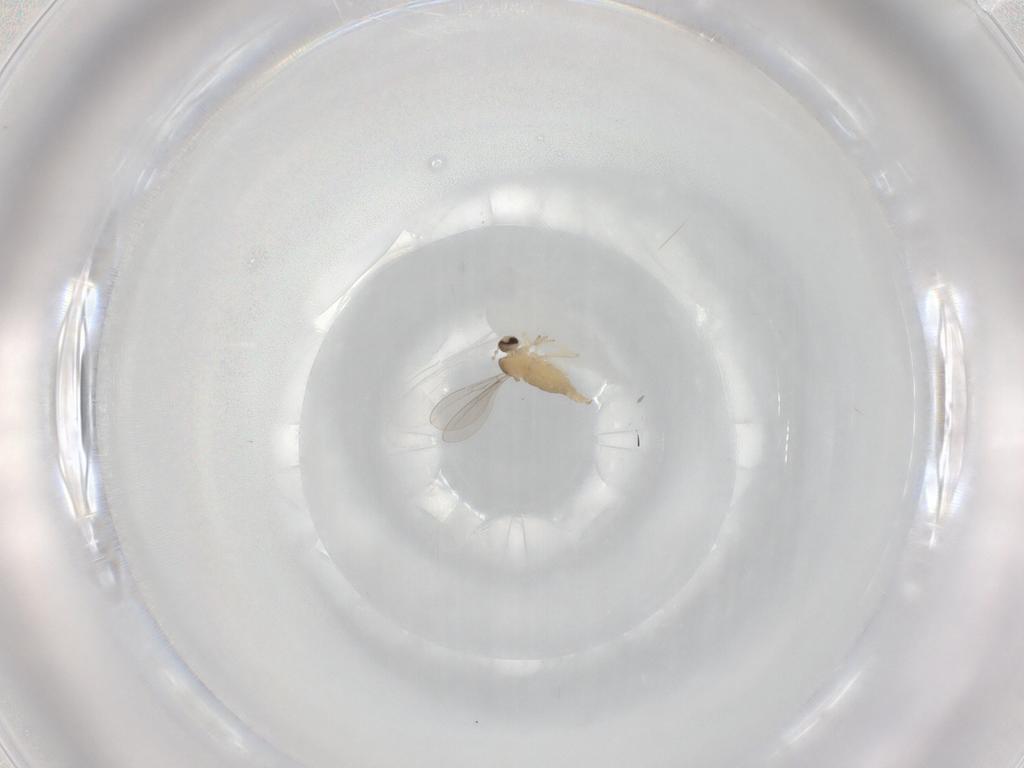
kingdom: Animalia
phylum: Arthropoda
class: Insecta
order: Diptera
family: Cecidomyiidae
